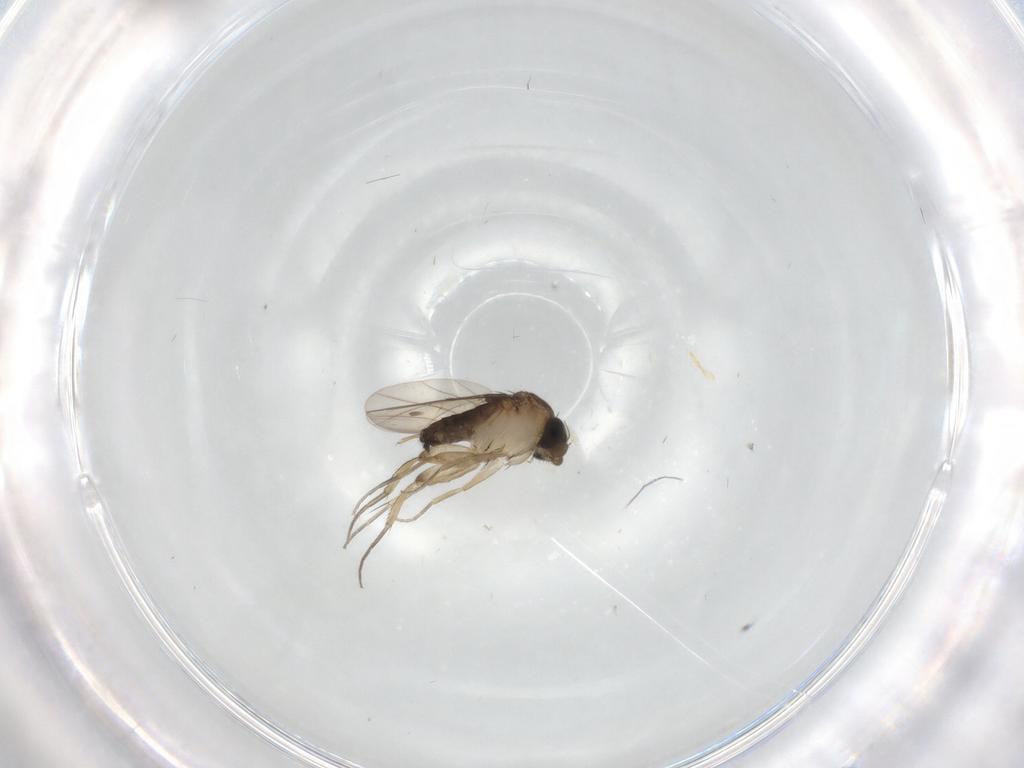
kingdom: Animalia
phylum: Arthropoda
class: Insecta
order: Diptera
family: Phoridae
